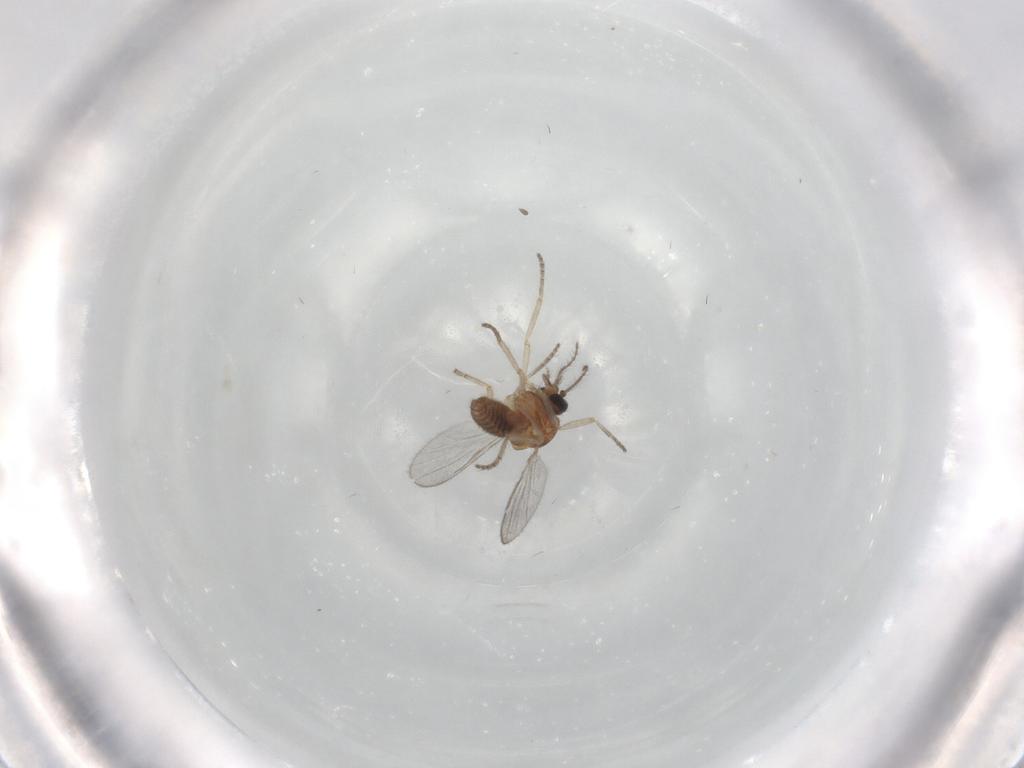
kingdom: Animalia
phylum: Arthropoda
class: Insecta
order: Diptera
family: Ceratopogonidae
